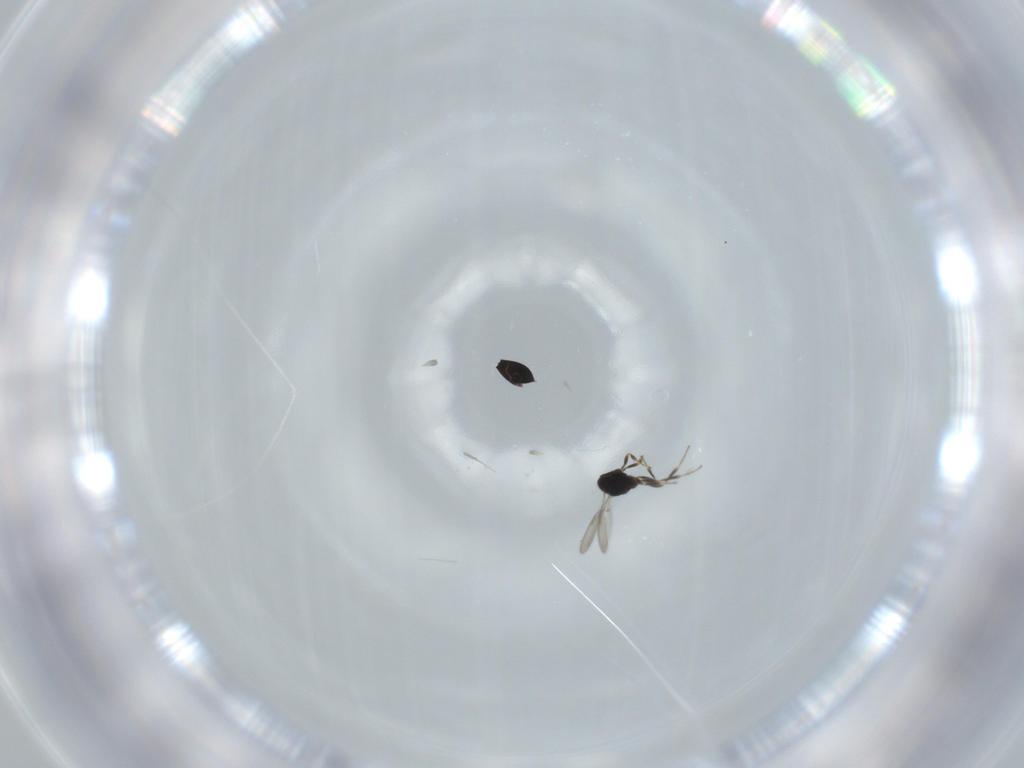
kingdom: Animalia
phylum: Arthropoda
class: Insecta
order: Hymenoptera
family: Scelionidae
